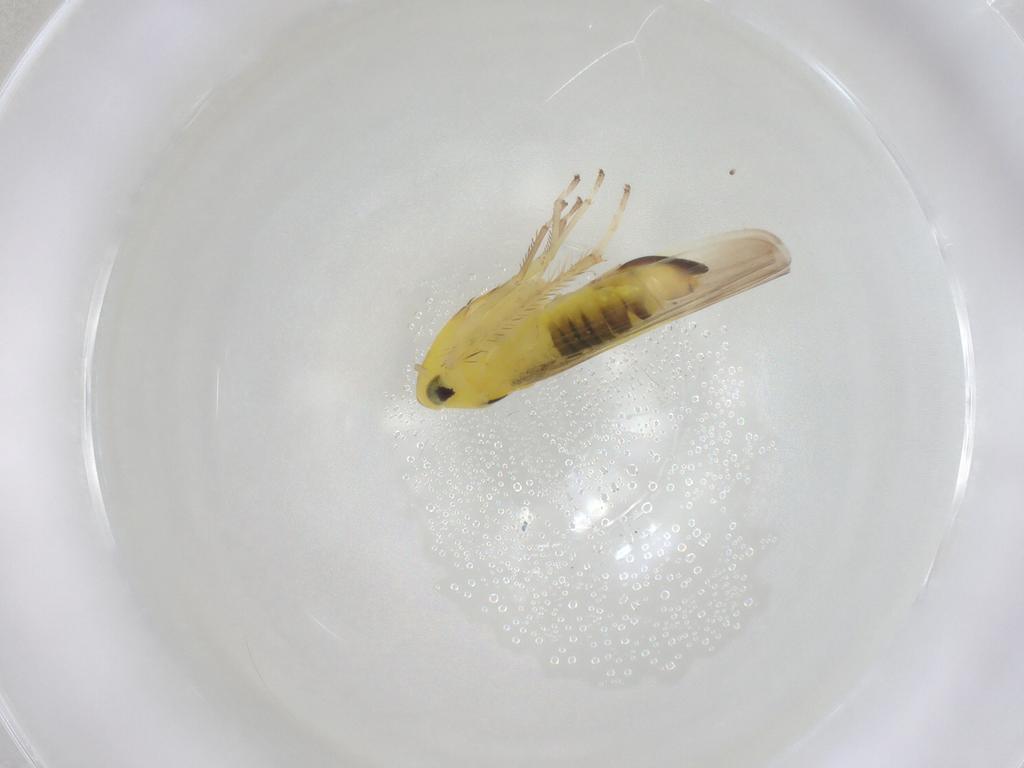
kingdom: Animalia
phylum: Arthropoda
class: Insecta
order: Hemiptera
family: Cicadellidae
